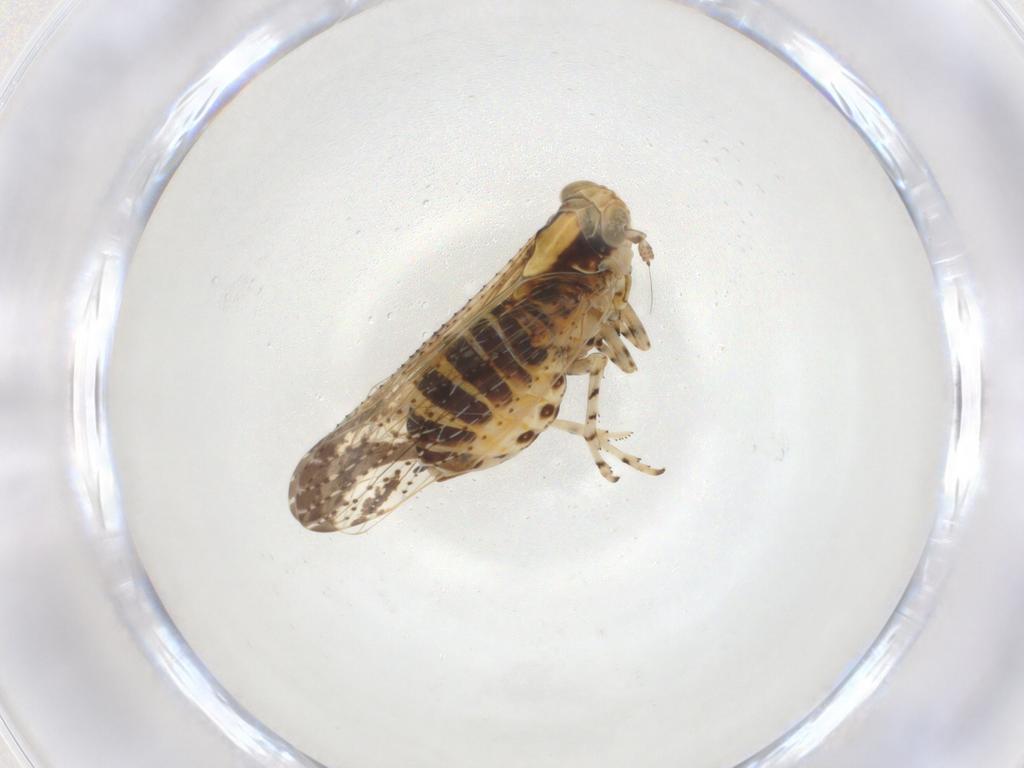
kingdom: Animalia
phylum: Arthropoda
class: Insecta
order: Hemiptera
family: Delphacidae
